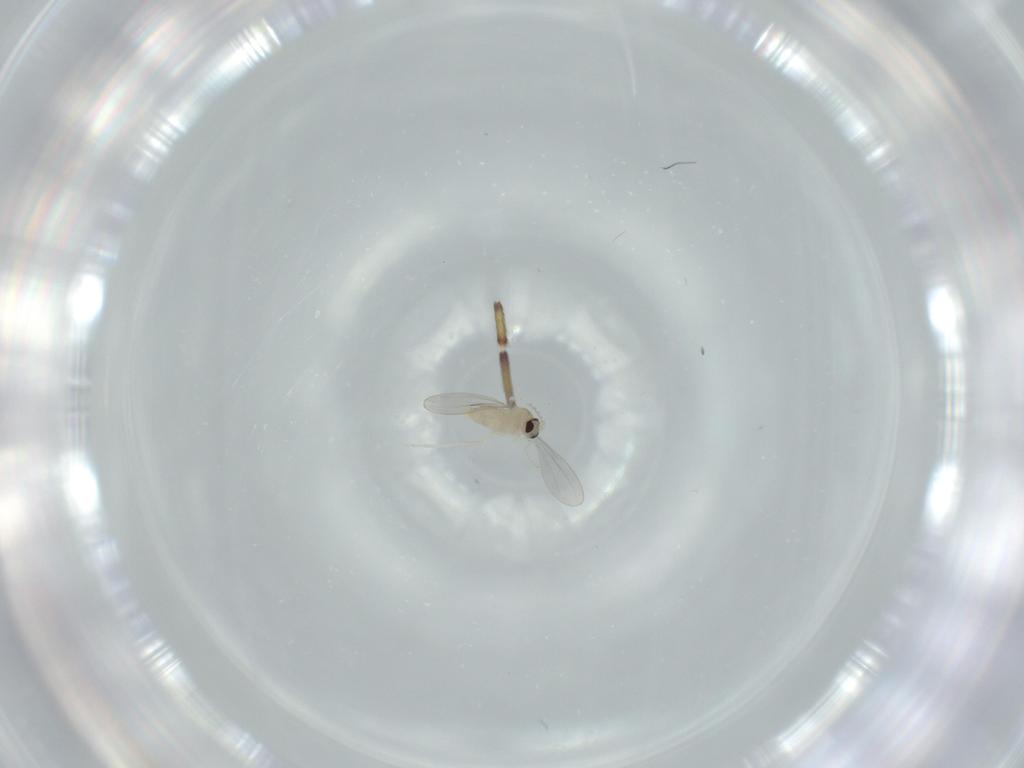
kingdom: Animalia
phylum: Arthropoda
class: Insecta
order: Diptera
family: Cecidomyiidae
